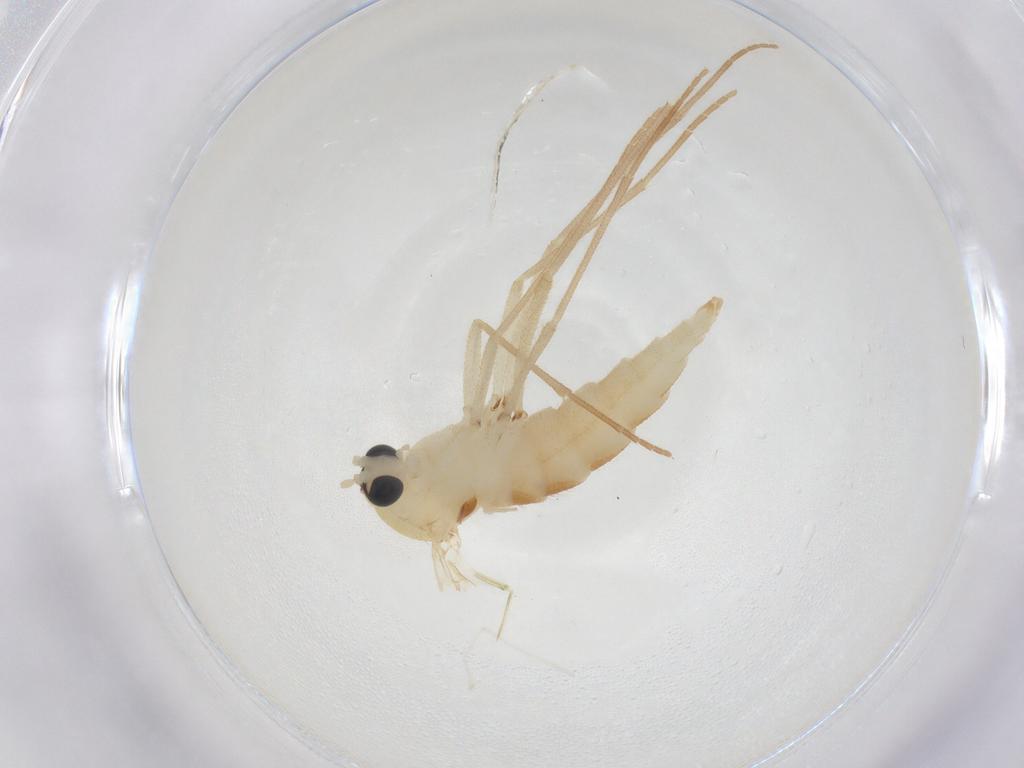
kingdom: Animalia
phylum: Arthropoda
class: Insecta
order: Diptera
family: Sciaridae
